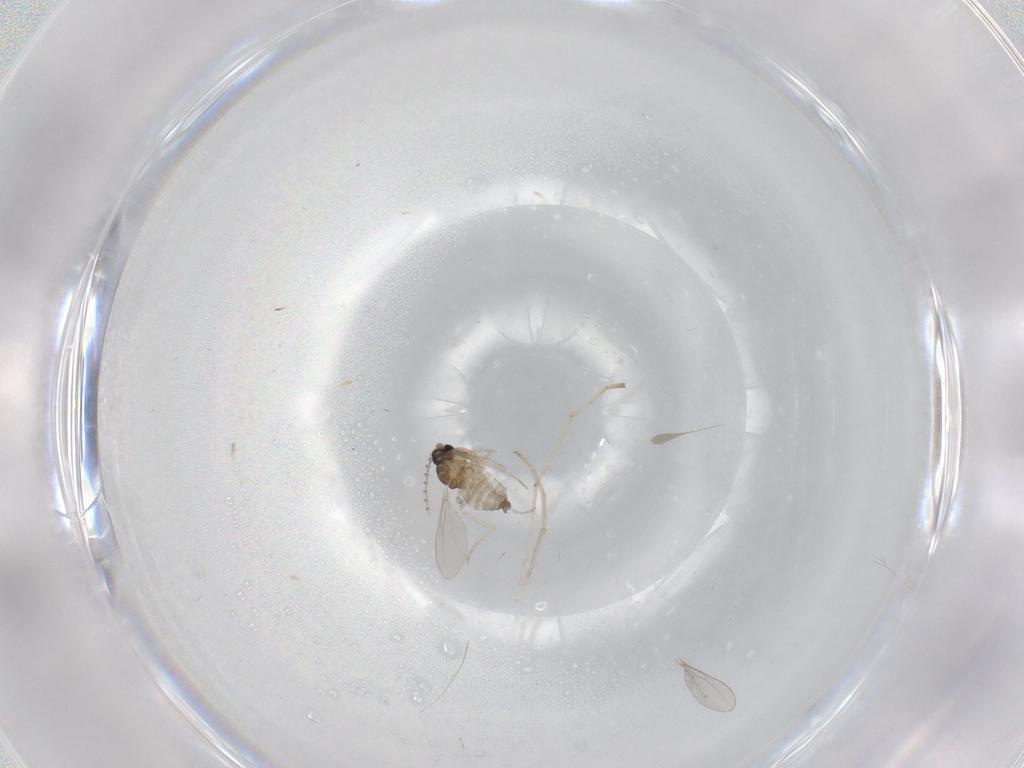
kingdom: Animalia
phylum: Arthropoda
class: Insecta
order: Diptera
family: Cecidomyiidae
